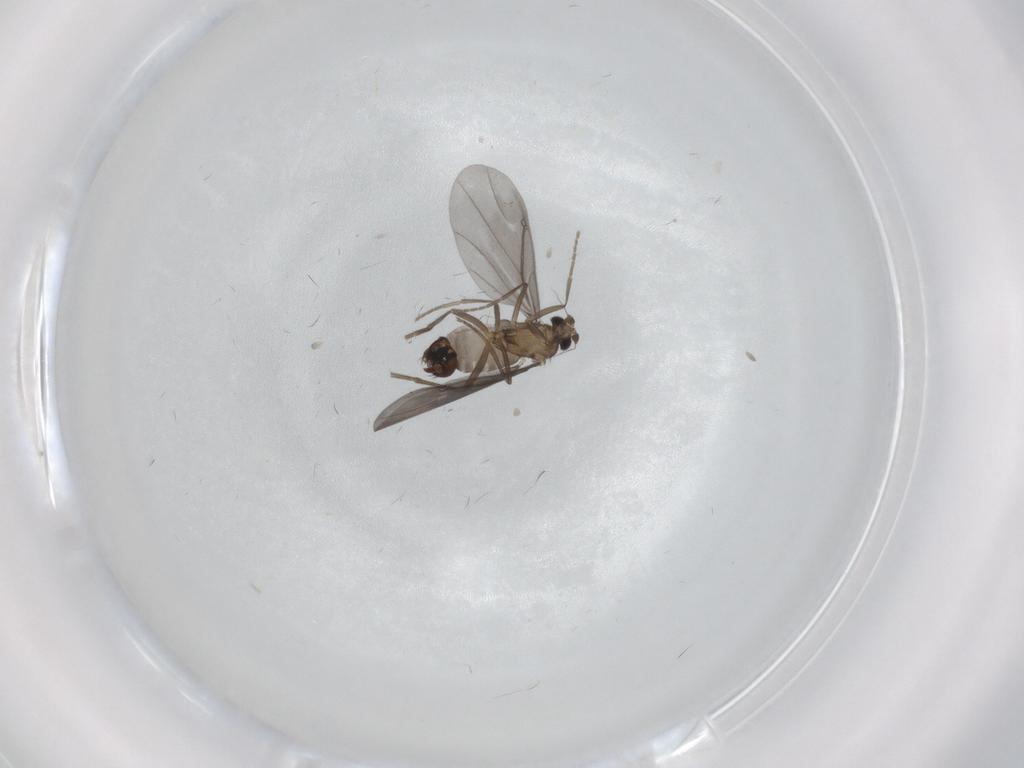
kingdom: Animalia
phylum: Arthropoda
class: Insecta
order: Diptera
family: Phoridae
